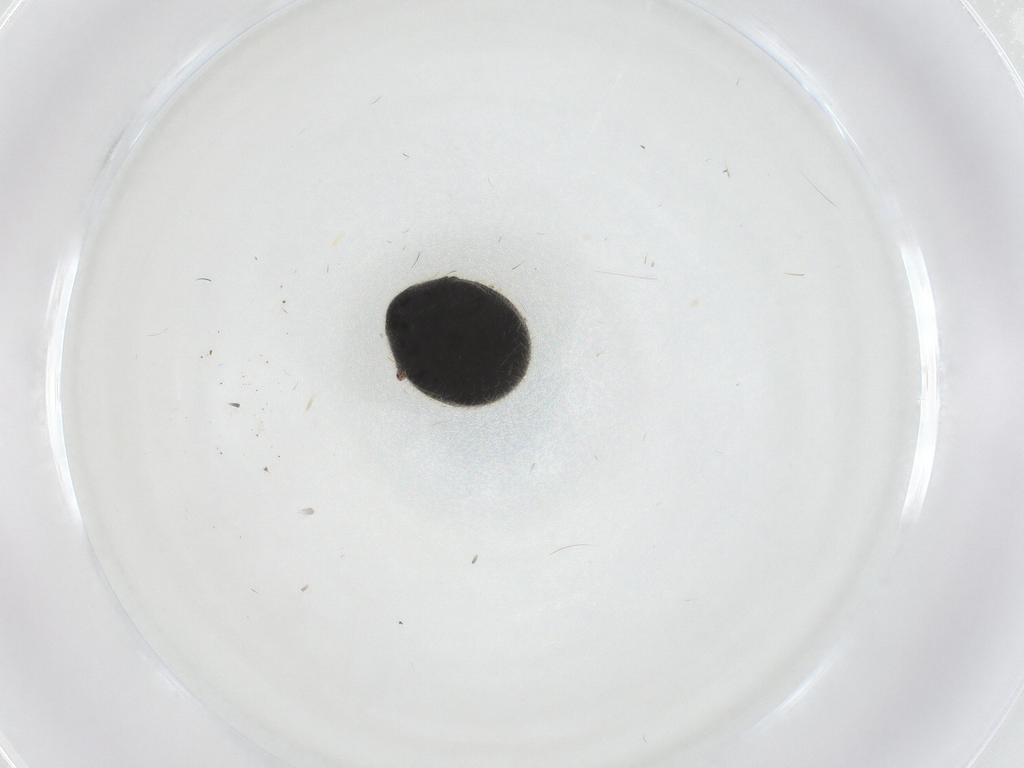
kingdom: Animalia
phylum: Arthropoda
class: Insecta
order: Coleoptera
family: Ptinidae
